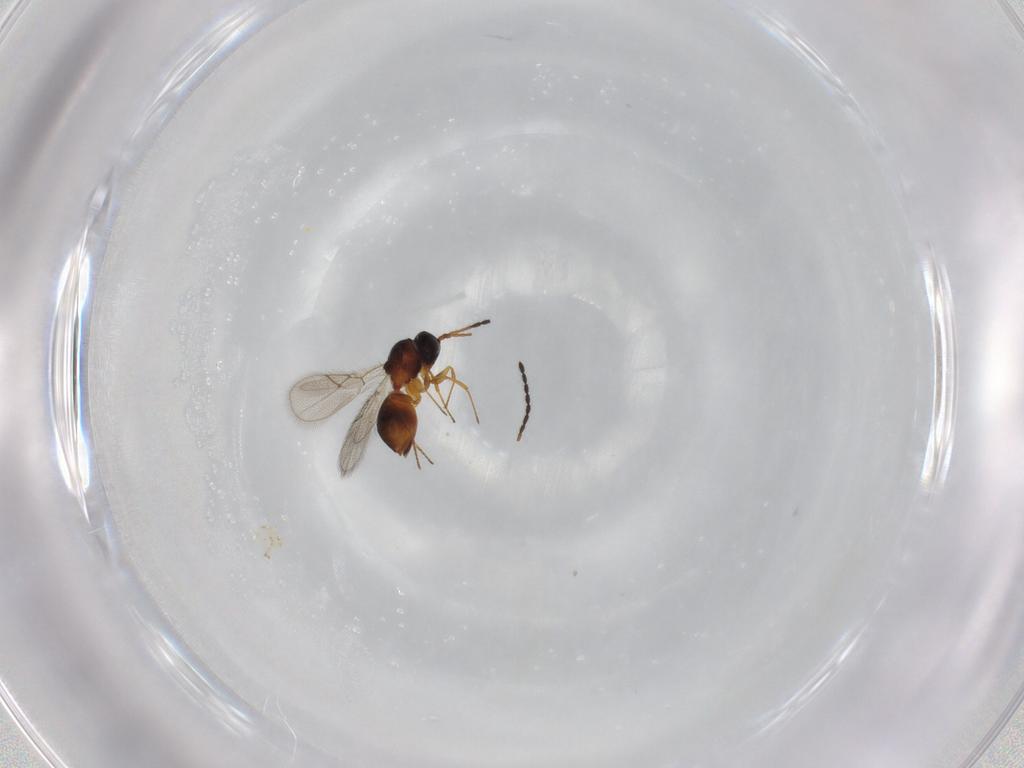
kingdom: Animalia
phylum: Arthropoda
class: Insecta
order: Hymenoptera
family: Figitidae
